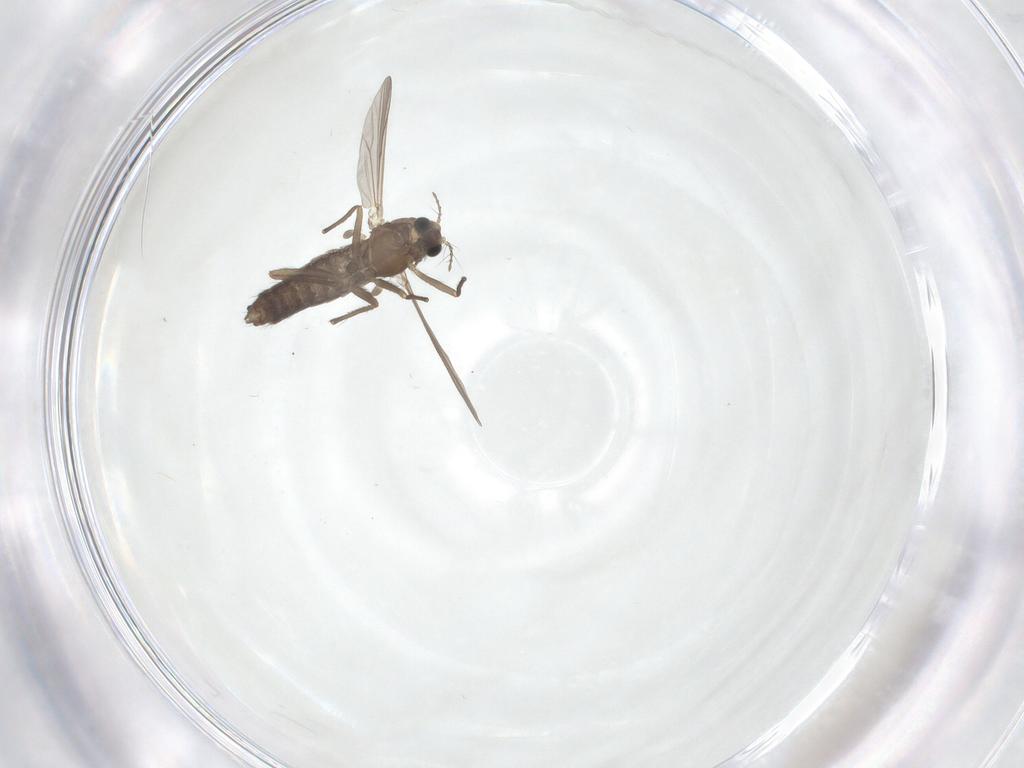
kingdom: Animalia
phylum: Arthropoda
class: Insecta
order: Diptera
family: Chironomidae
